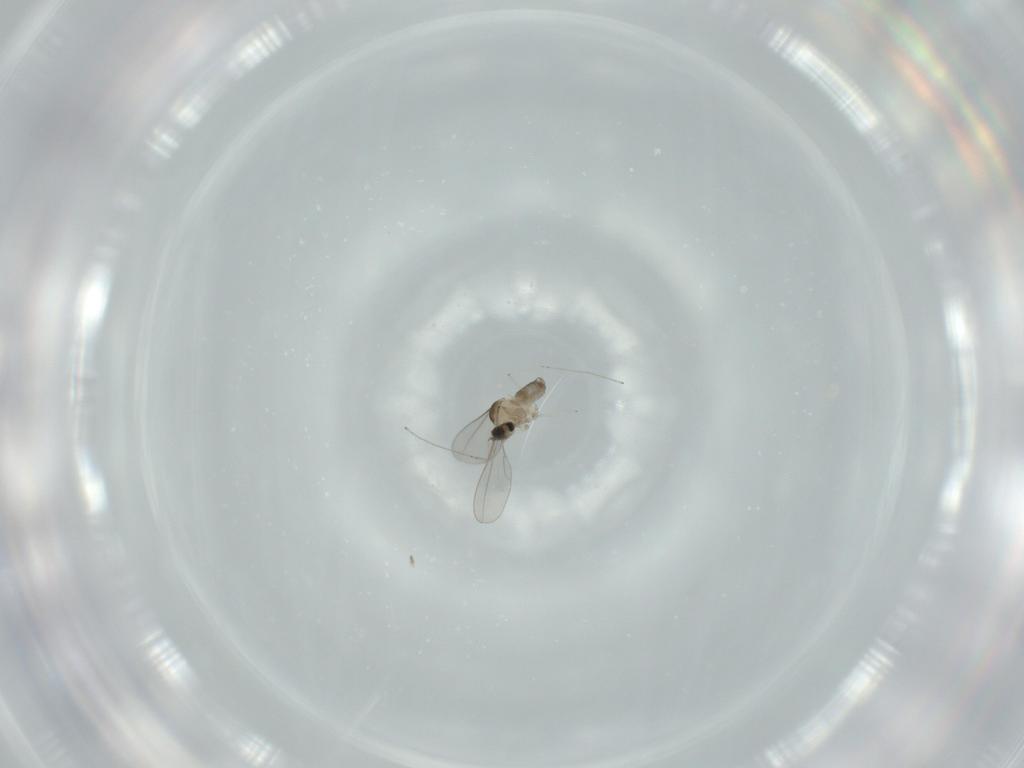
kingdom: Animalia
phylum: Arthropoda
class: Insecta
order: Diptera
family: Cecidomyiidae
